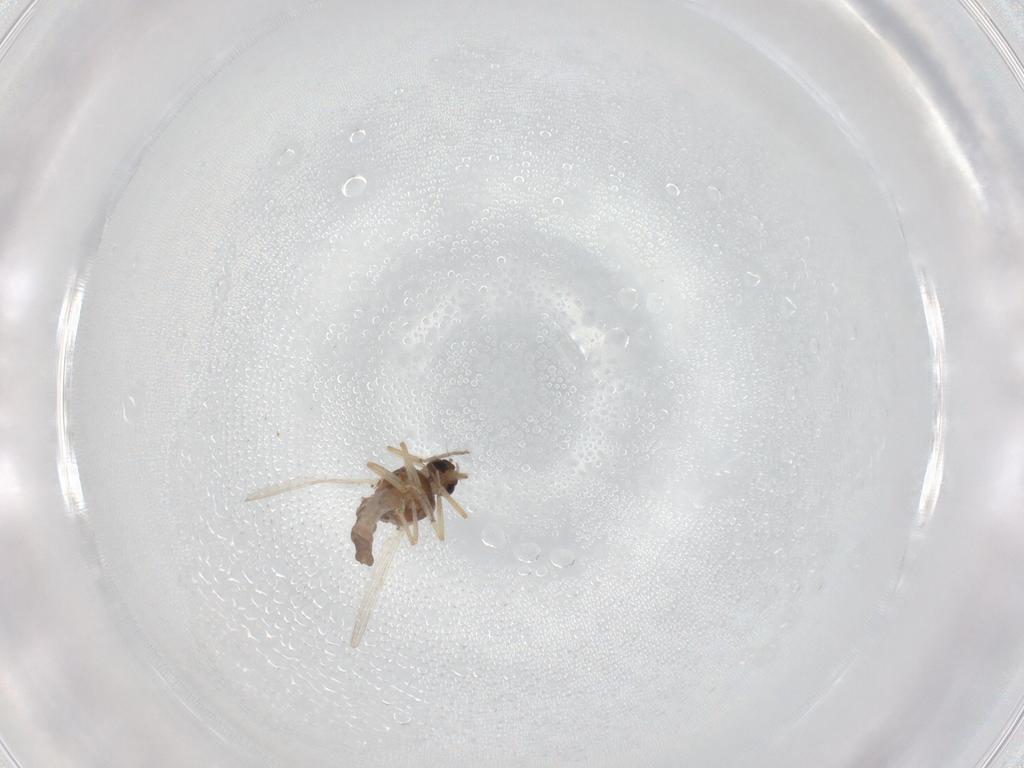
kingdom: Animalia
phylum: Arthropoda
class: Insecta
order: Diptera
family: Ceratopogonidae
